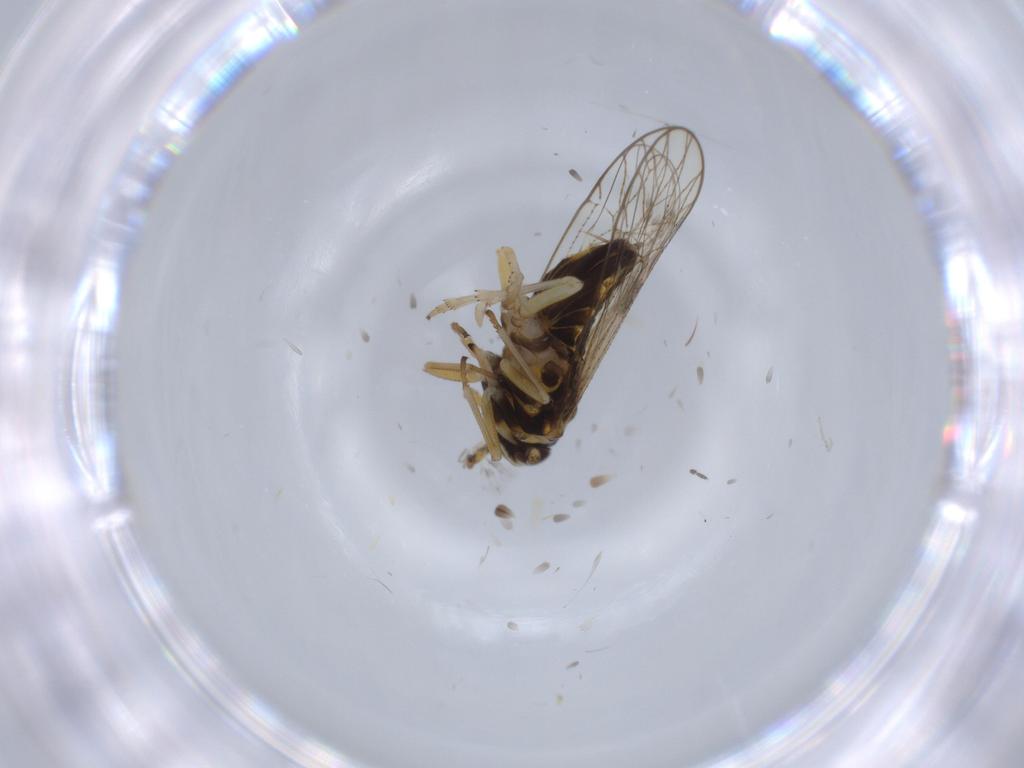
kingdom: Animalia
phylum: Arthropoda
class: Insecta
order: Hemiptera
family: Cercopidae
